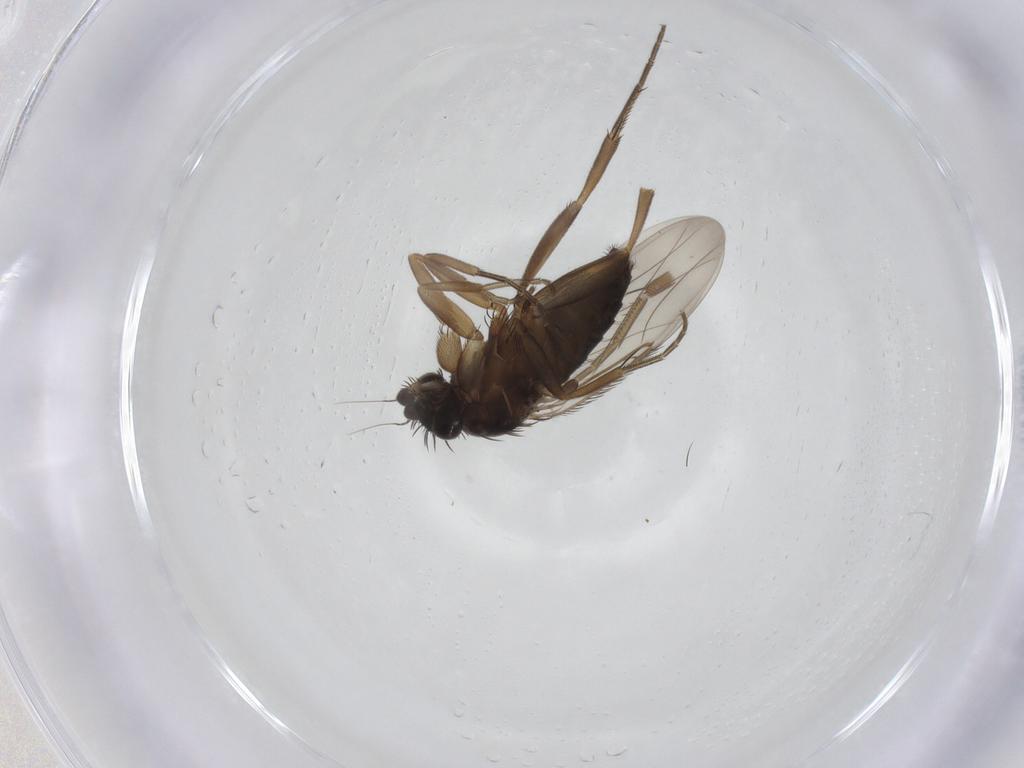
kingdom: Animalia
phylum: Arthropoda
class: Insecta
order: Diptera
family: Phoridae
